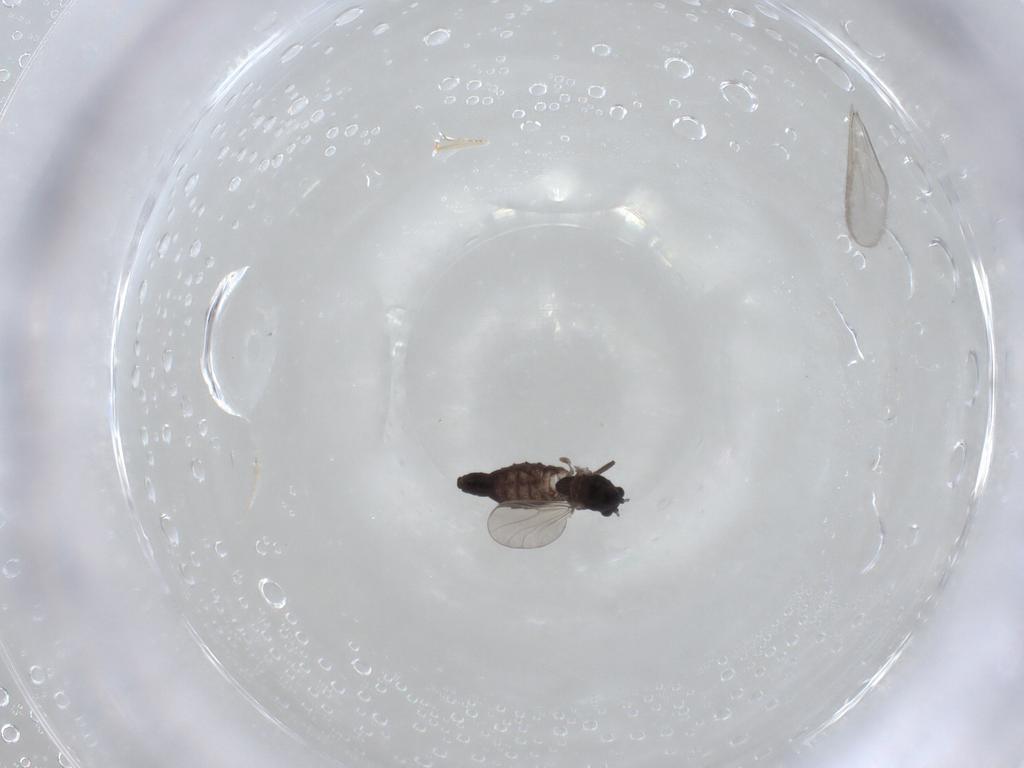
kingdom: Animalia
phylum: Arthropoda
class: Insecta
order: Diptera
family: Chironomidae
